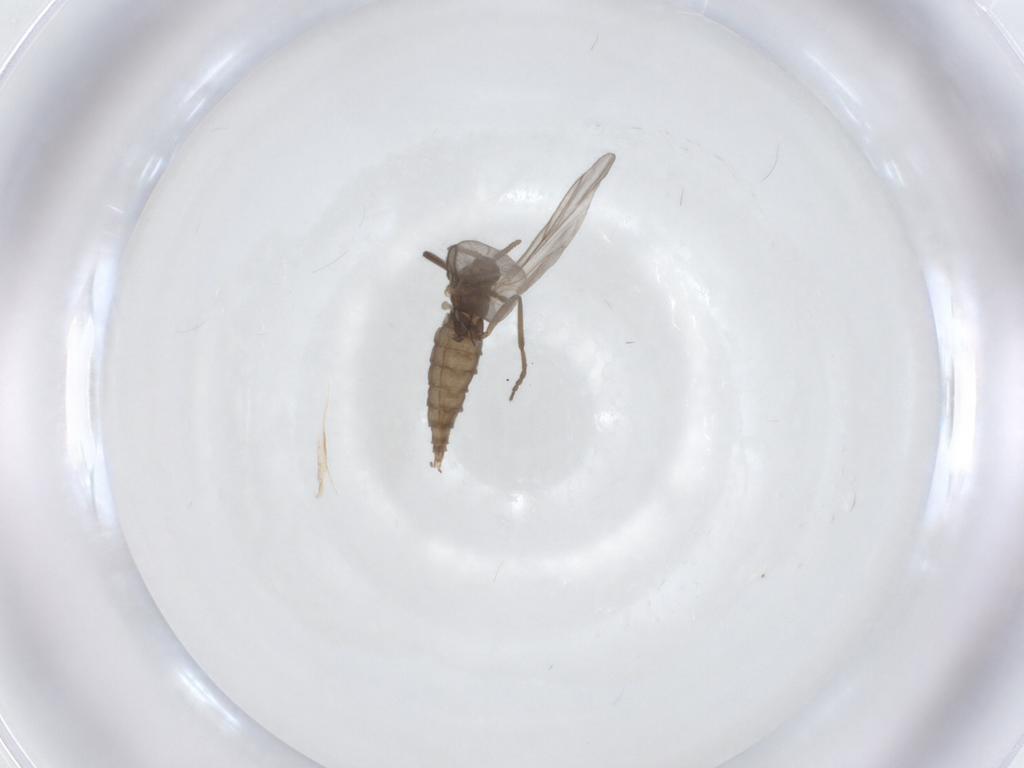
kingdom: Animalia
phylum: Arthropoda
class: Insecta
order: Diptera
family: Cecidomyiidae
